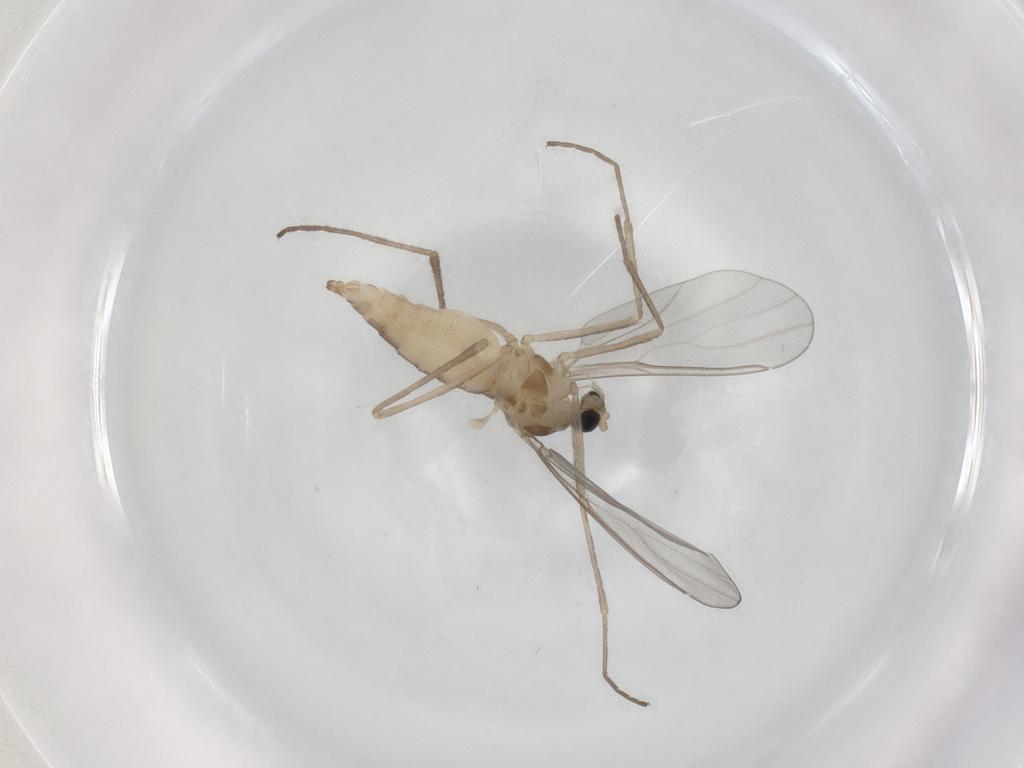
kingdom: Animalia
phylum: Arthropoda
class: Insecta
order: Diptera
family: Cecidomyiidae
